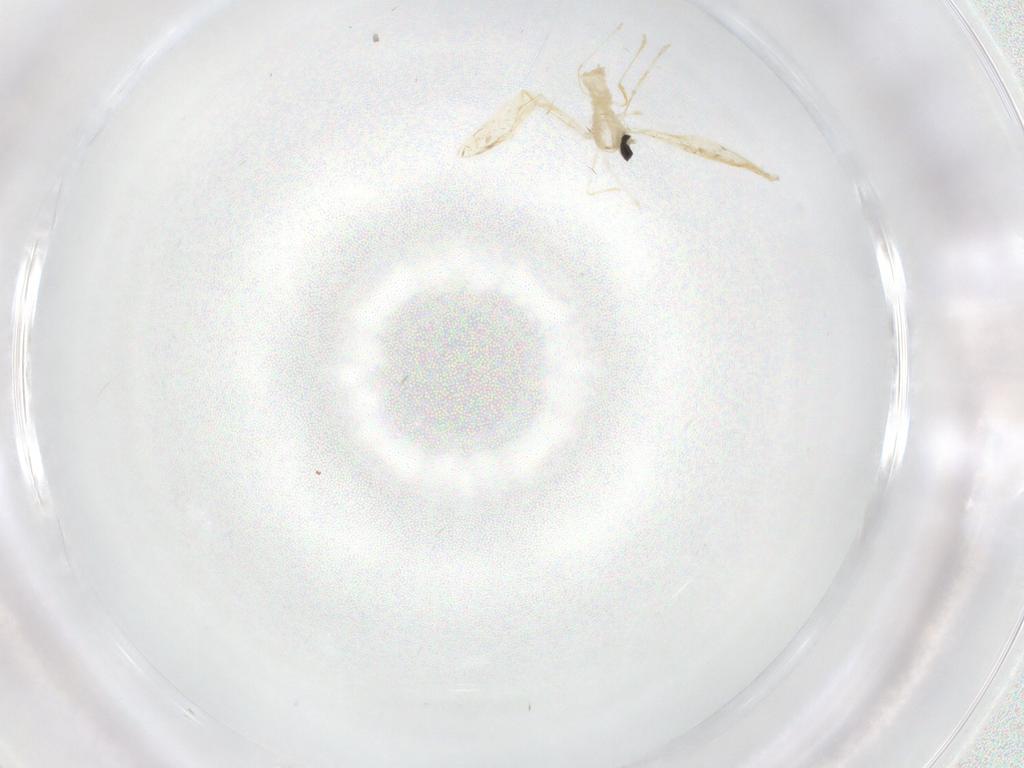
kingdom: Animalia
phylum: Arthropoda
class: Insecta
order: Diptera
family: Cecidomyiidae
